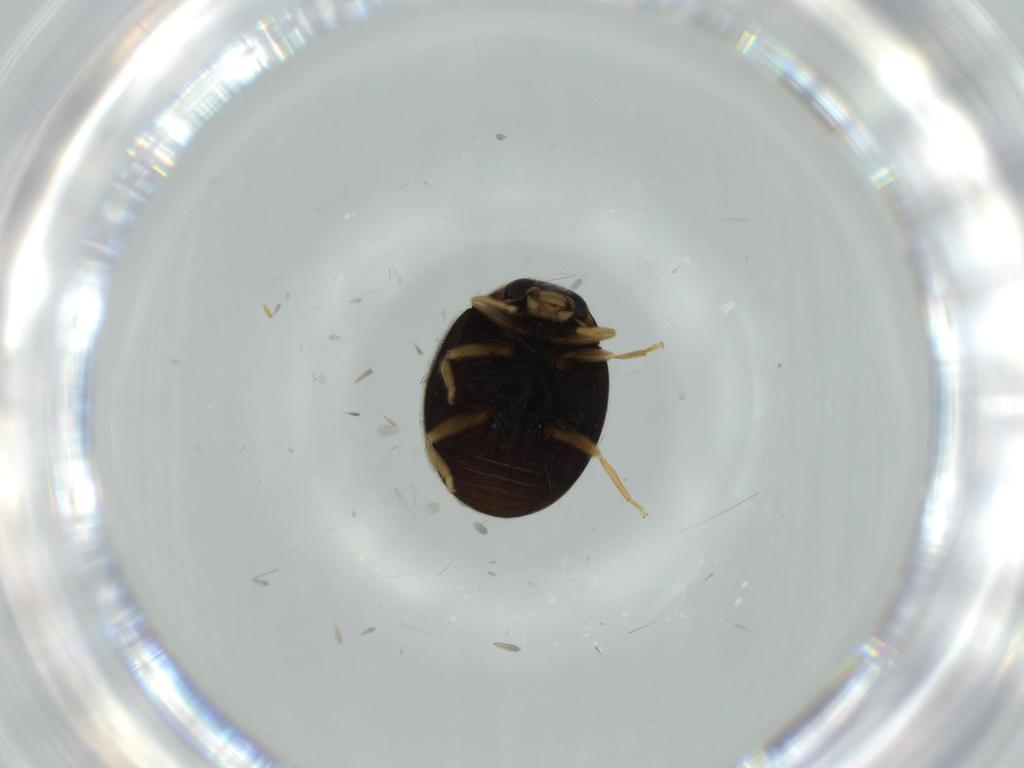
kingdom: Animalia
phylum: Arthropoda
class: Insecta
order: Coleoptera
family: Coccinellidae
